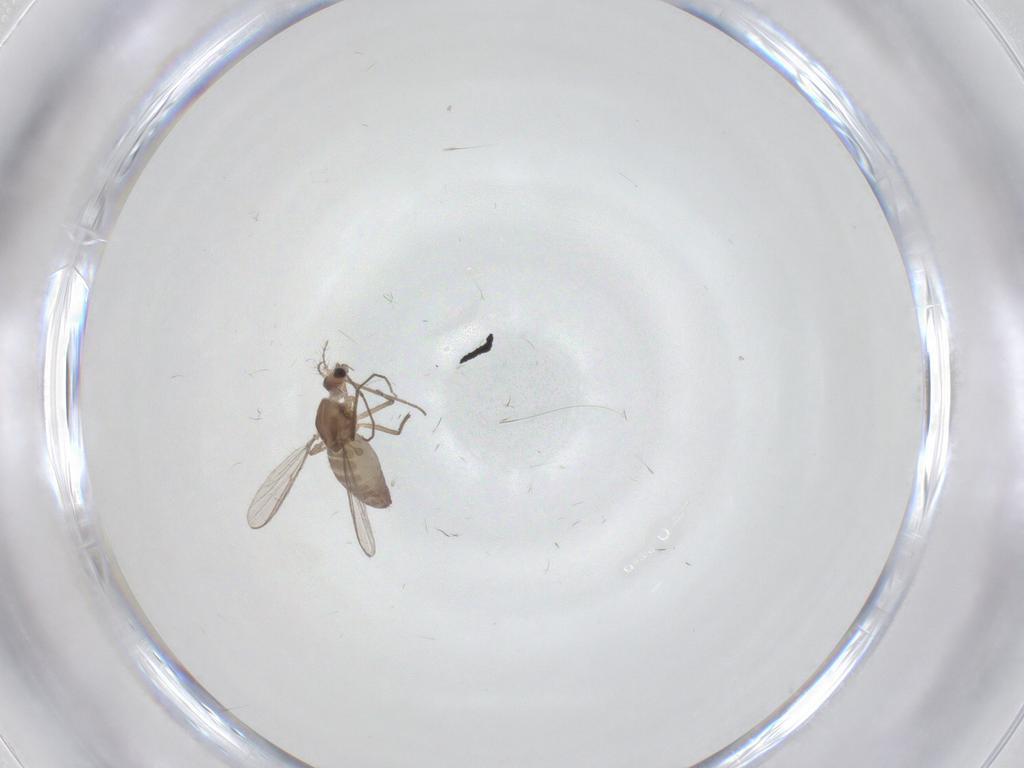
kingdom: Animalia
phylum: Arthropoda
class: Insecta
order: Diptera
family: Chironomidae
